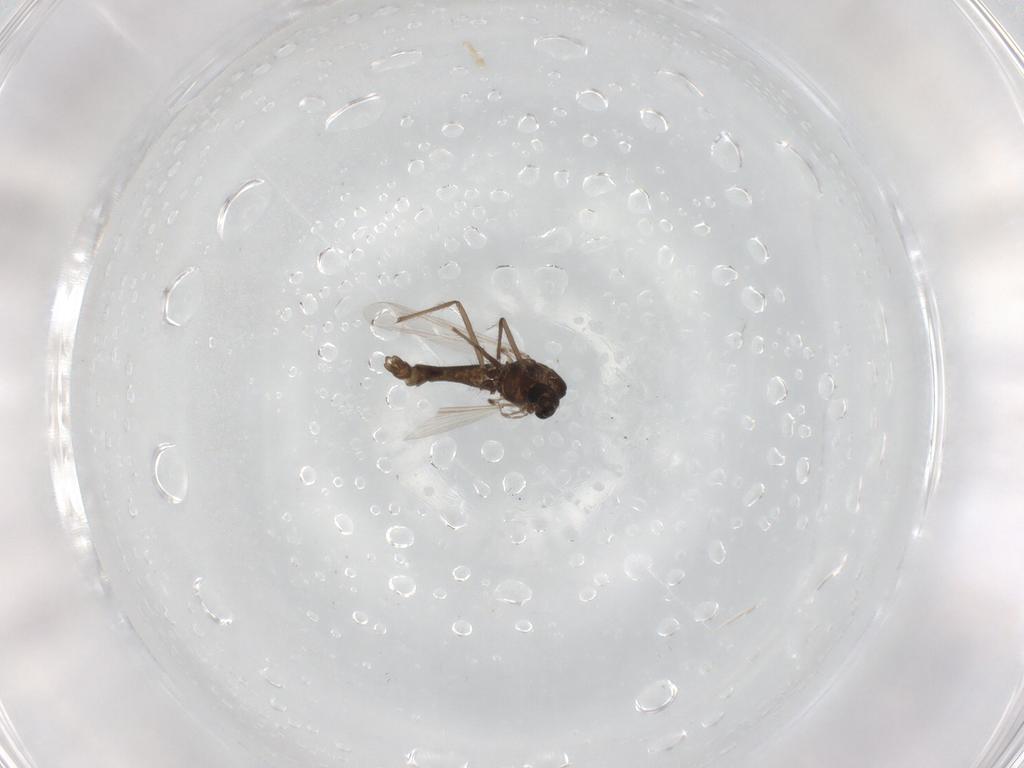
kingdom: Animalia
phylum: Arthropoda
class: Insecta
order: Diptera
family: Chironomidae
